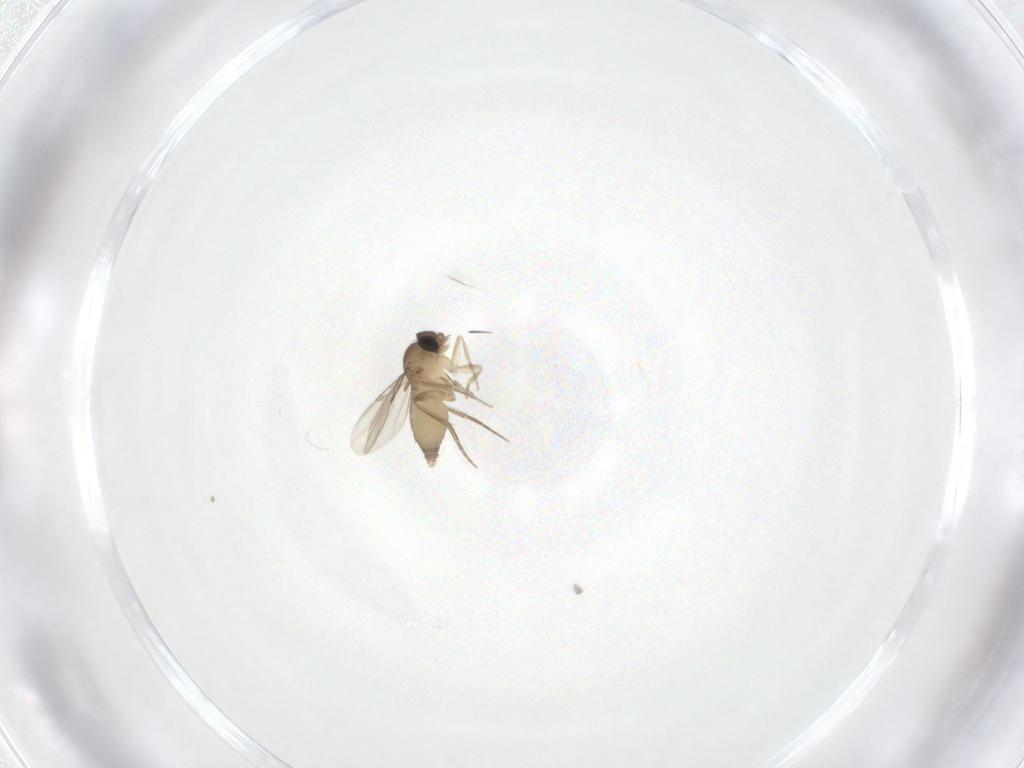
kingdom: Animalia
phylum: Arthropoda
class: Insecta
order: Diptera
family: Phoridae
